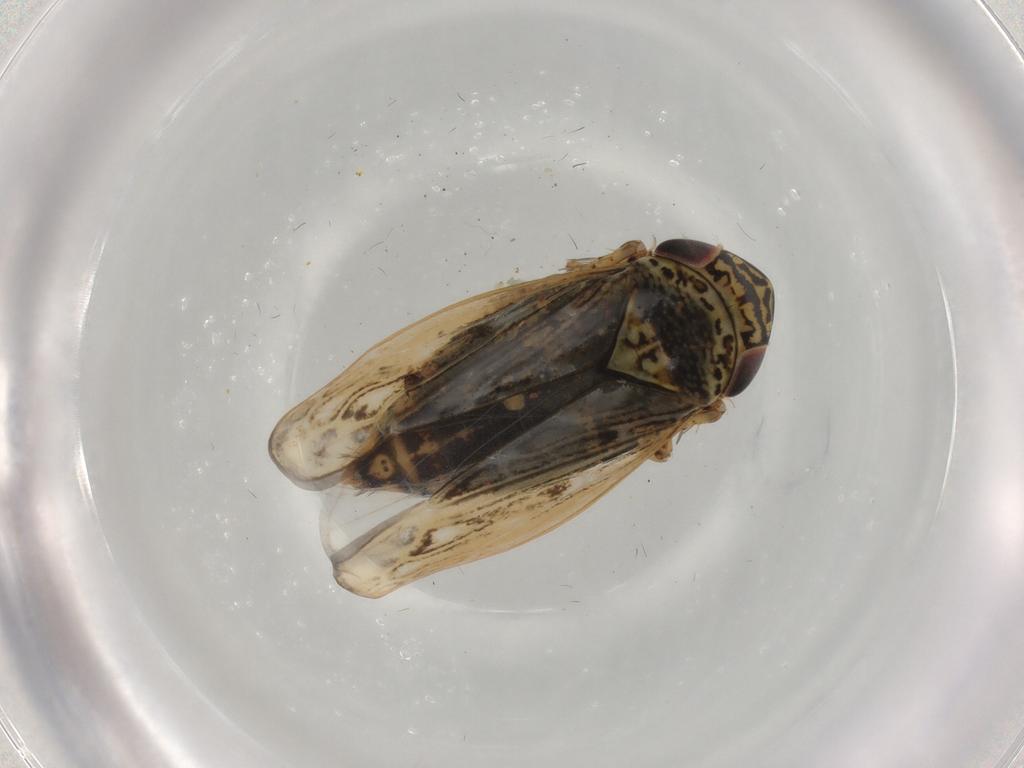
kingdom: Animalia
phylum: Arthropoda
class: Insecta
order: Hemiptera
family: Cicadellidae
